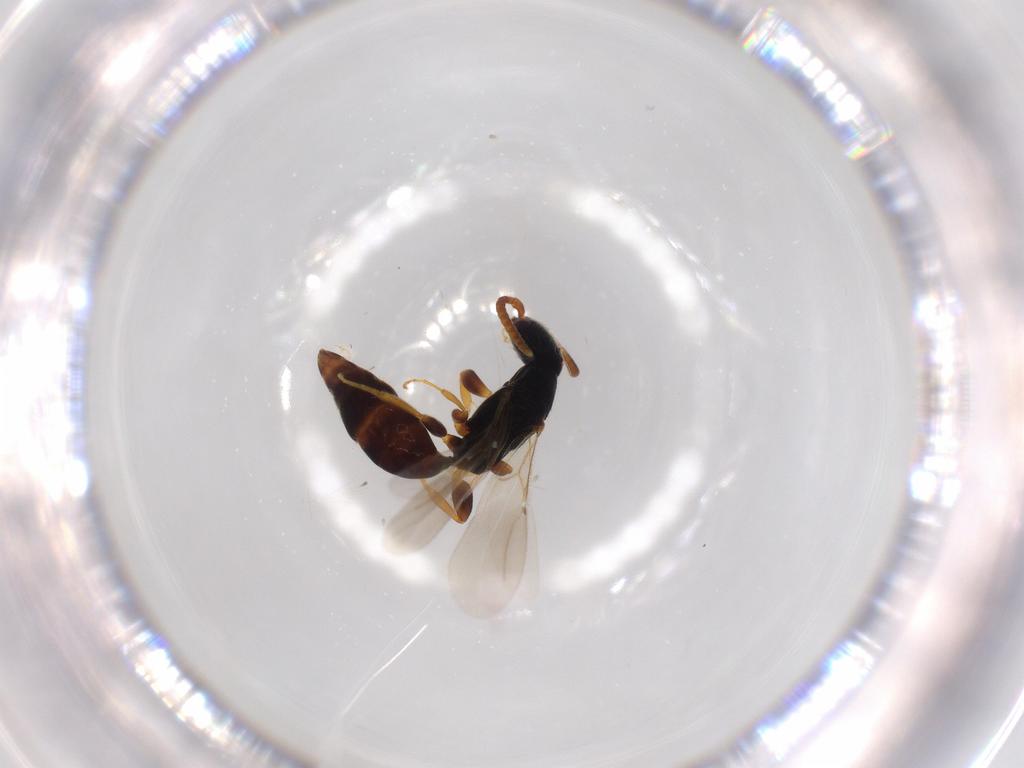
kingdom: Animalia
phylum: Arthropoda
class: Insecta
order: Hymenoptera
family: Bethylidae
